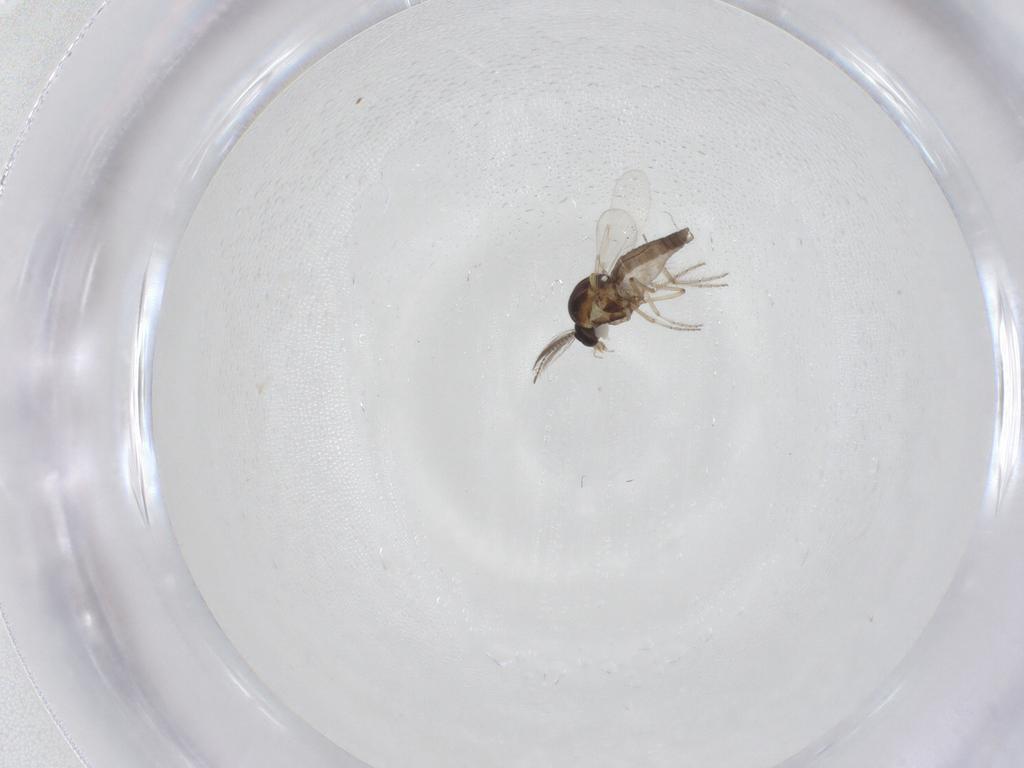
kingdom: Animalia
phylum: Arthropoda
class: Insecta
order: Diptera
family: Ceratopogonidae
